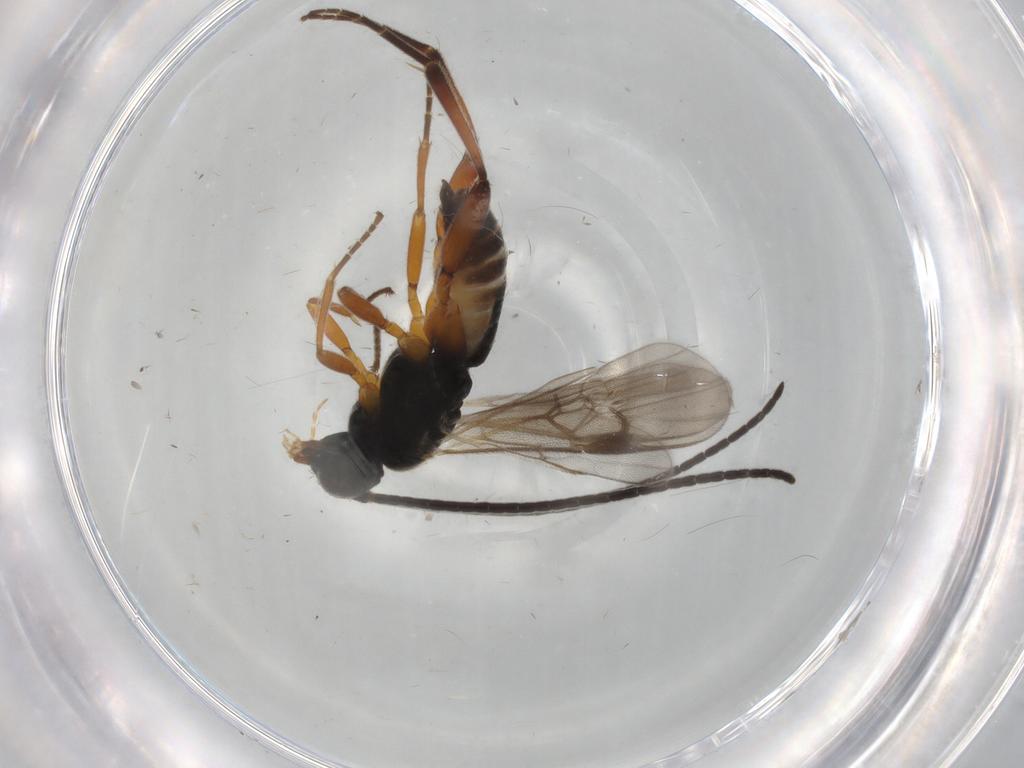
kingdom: Animalia
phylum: Arthropoda
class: Insecta
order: Hymenoptera
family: Braconidae
